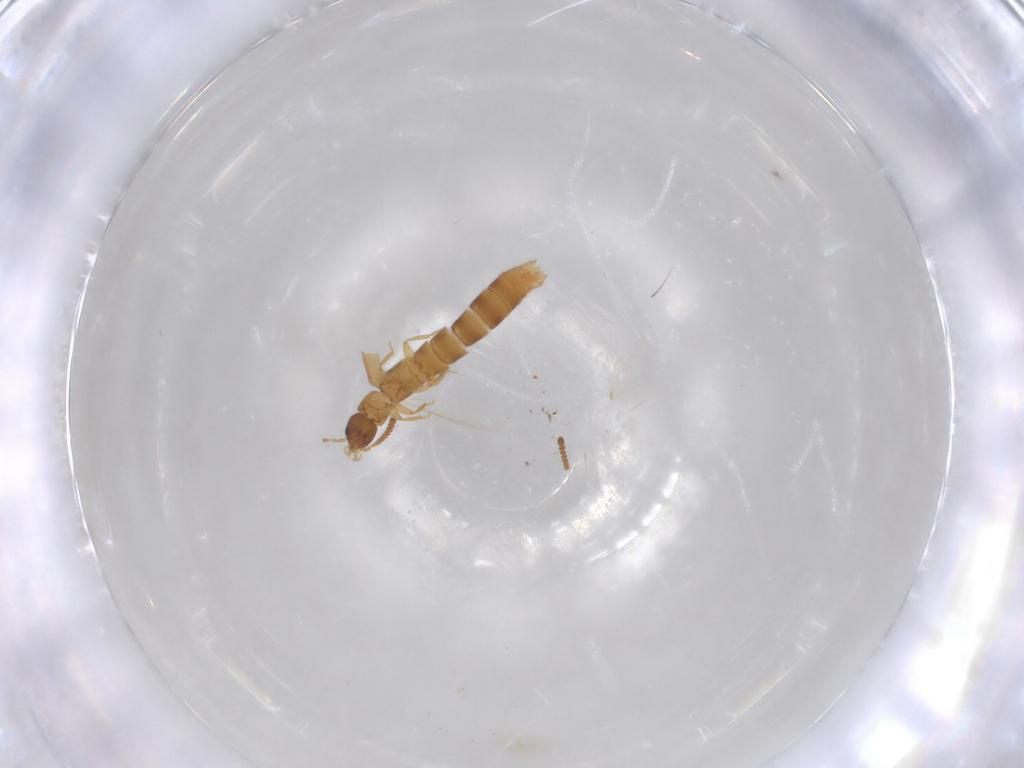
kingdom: Animalia
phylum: Arthropoda
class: Insecta
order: Coleoptera
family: Staphylinidae
